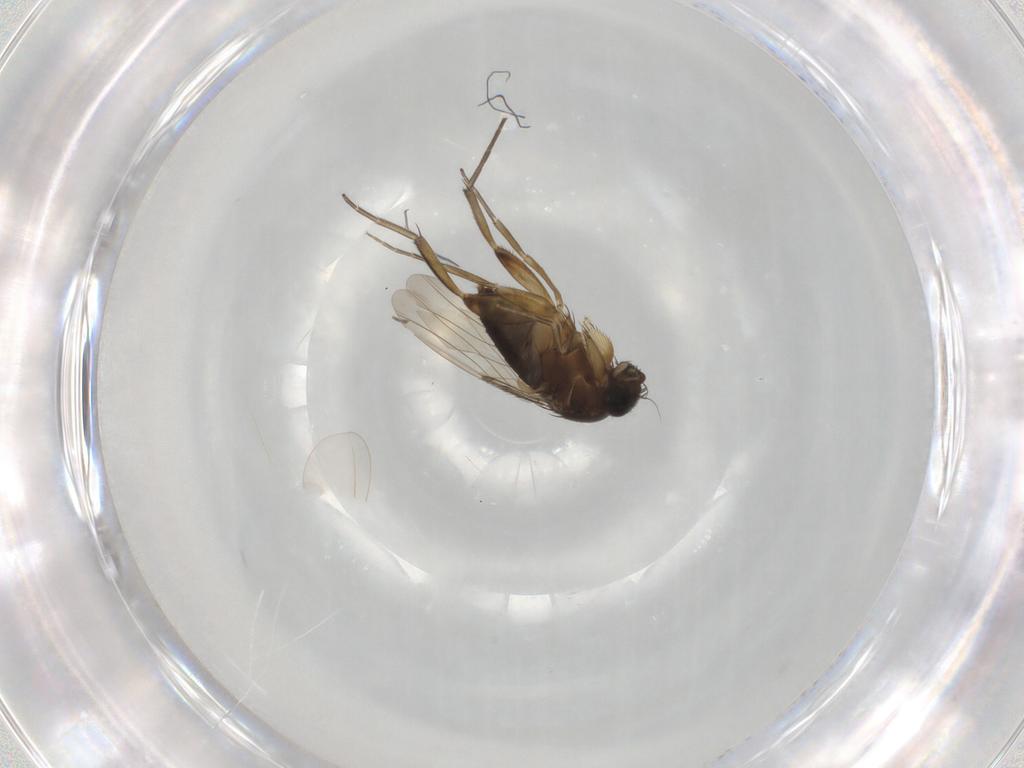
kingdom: Animalia
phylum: Arthropoda
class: Insecta
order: Diptera
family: Phoridae
